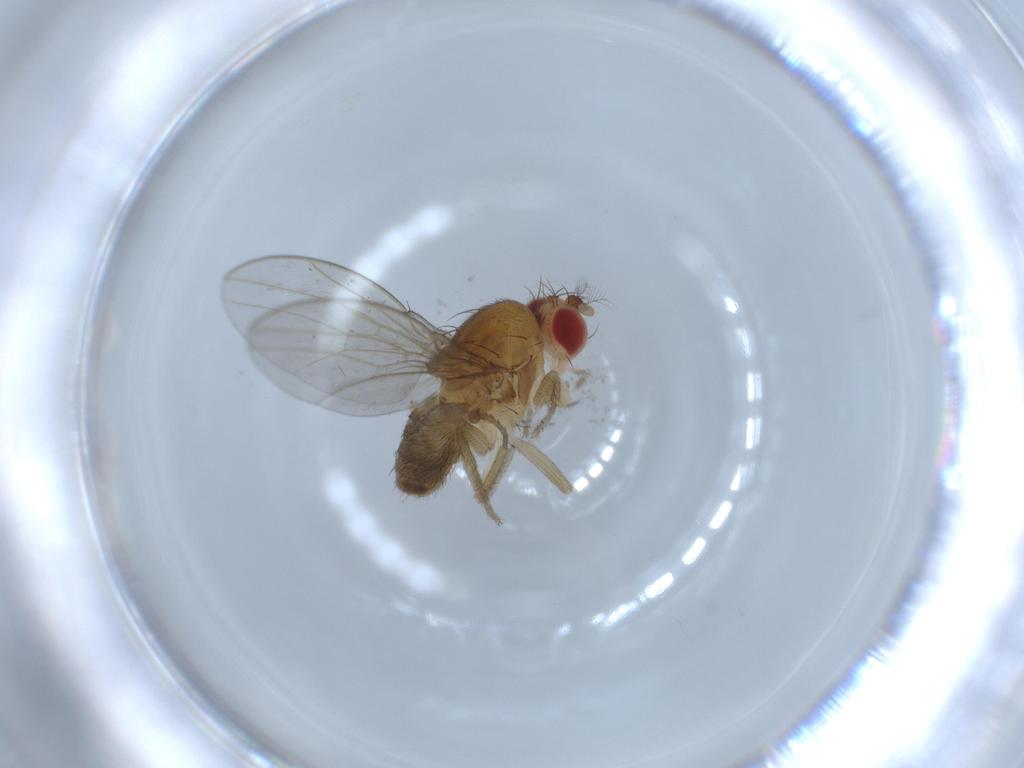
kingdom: Animalia
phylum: Arthropoda
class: Insecta
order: Diptera
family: Drosophilidae
